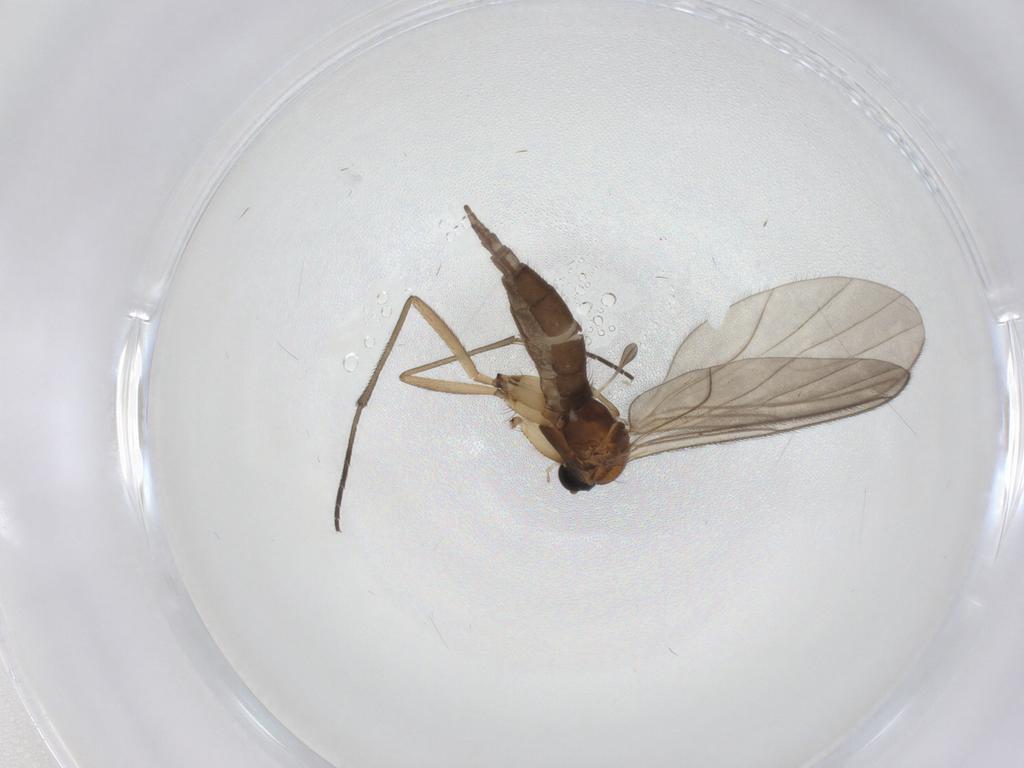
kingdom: Animalia
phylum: Arthropoda
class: Insecta
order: Diptera
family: Sciaridae
